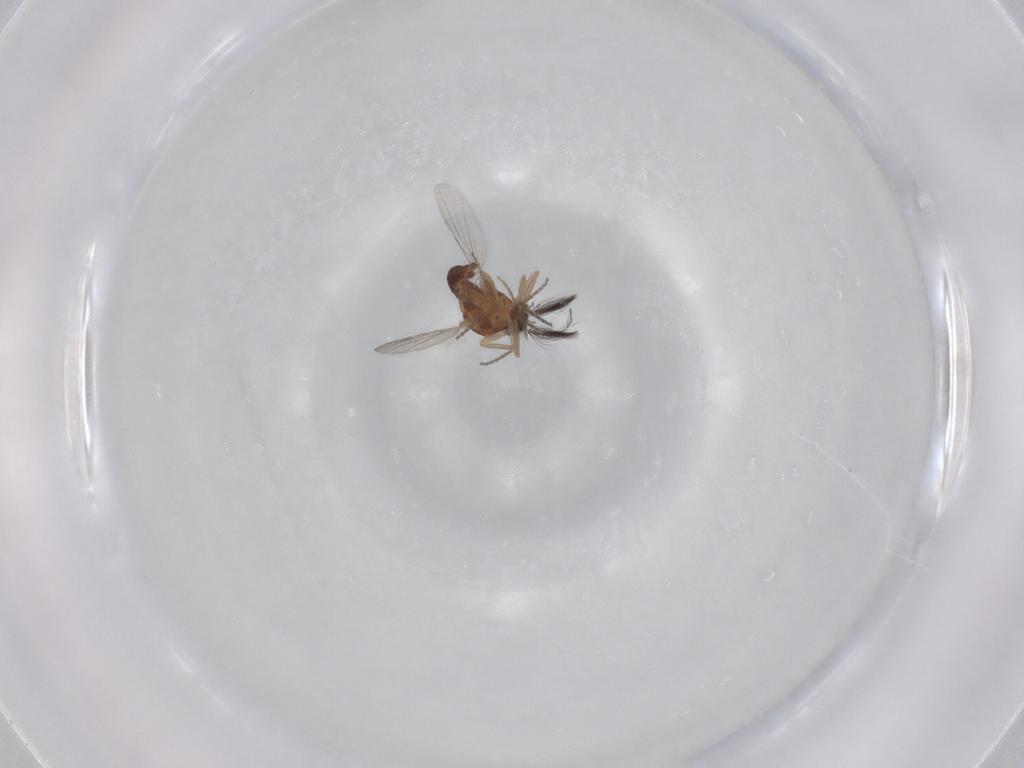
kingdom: Animalia
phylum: Arthropoda
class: Insecta
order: Diptera
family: Ceratopogonidae
